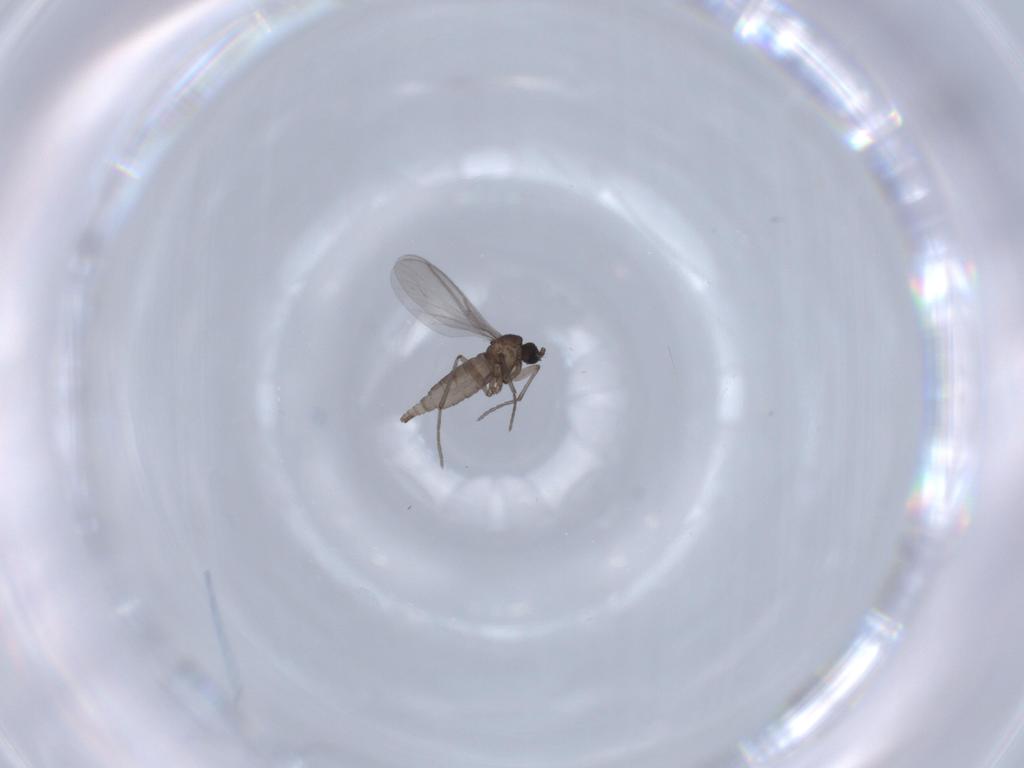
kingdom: Animalia
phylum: Arthropoda
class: Insecta
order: Diptera
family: Sciaridae
